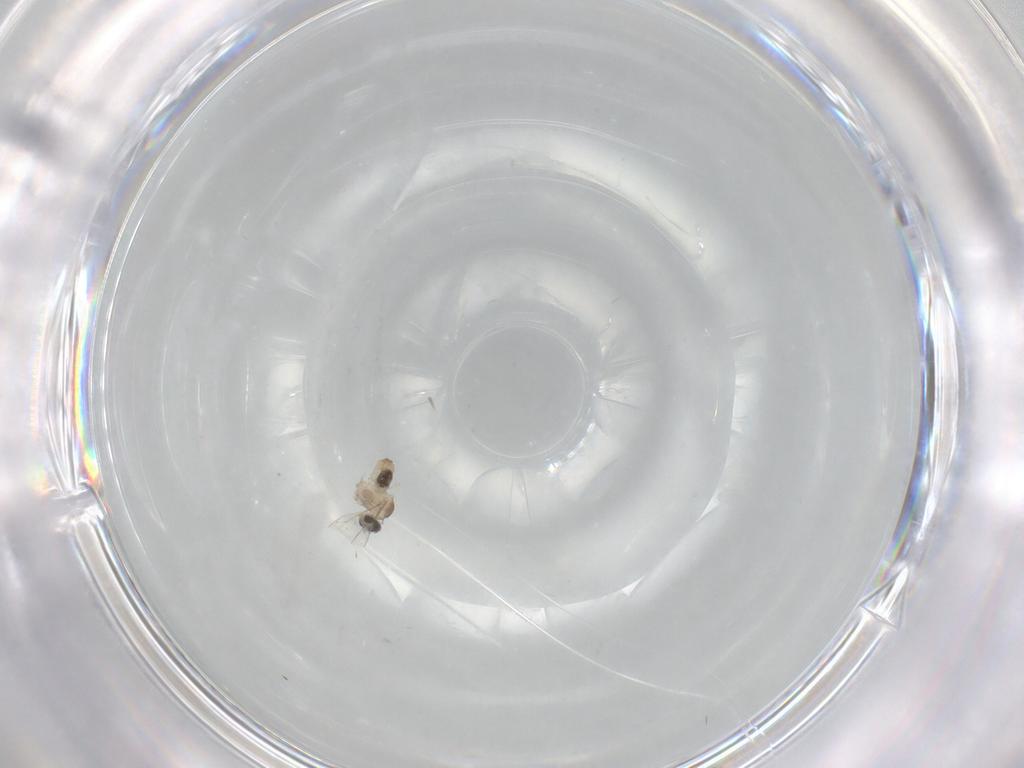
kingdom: Animalia
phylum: Arthropoda
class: Insecta
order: Diptera
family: Cecidomyiidae
